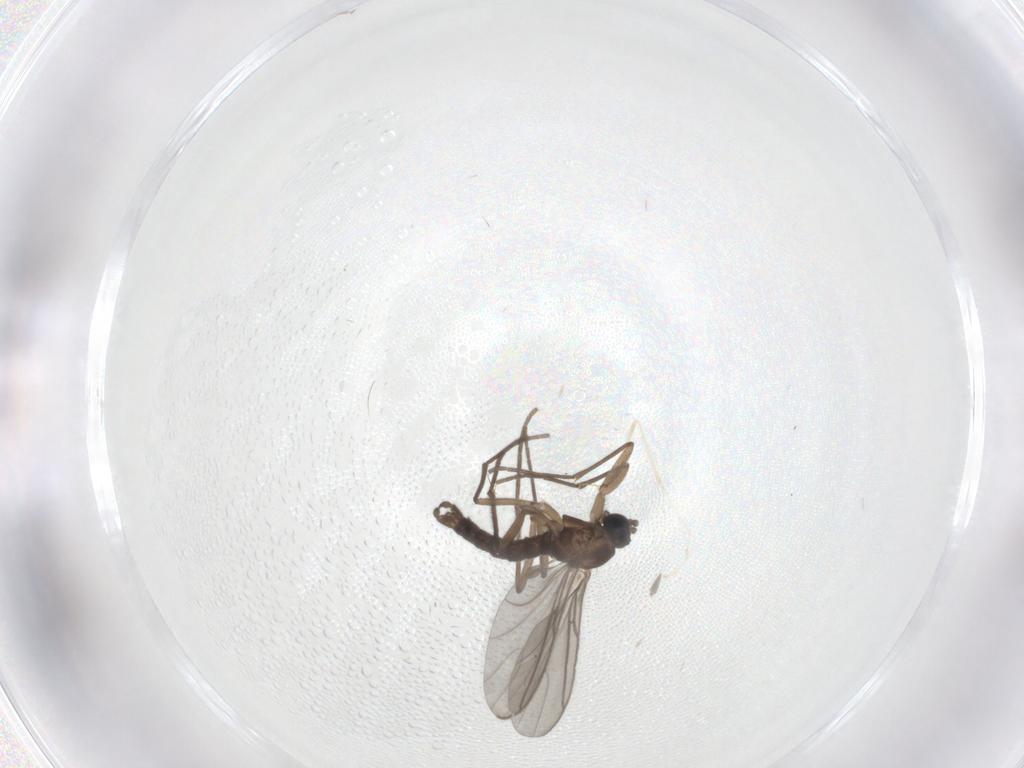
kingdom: Animalia
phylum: Arthropoda
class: Insecta
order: Diptera
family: Sciaridae
